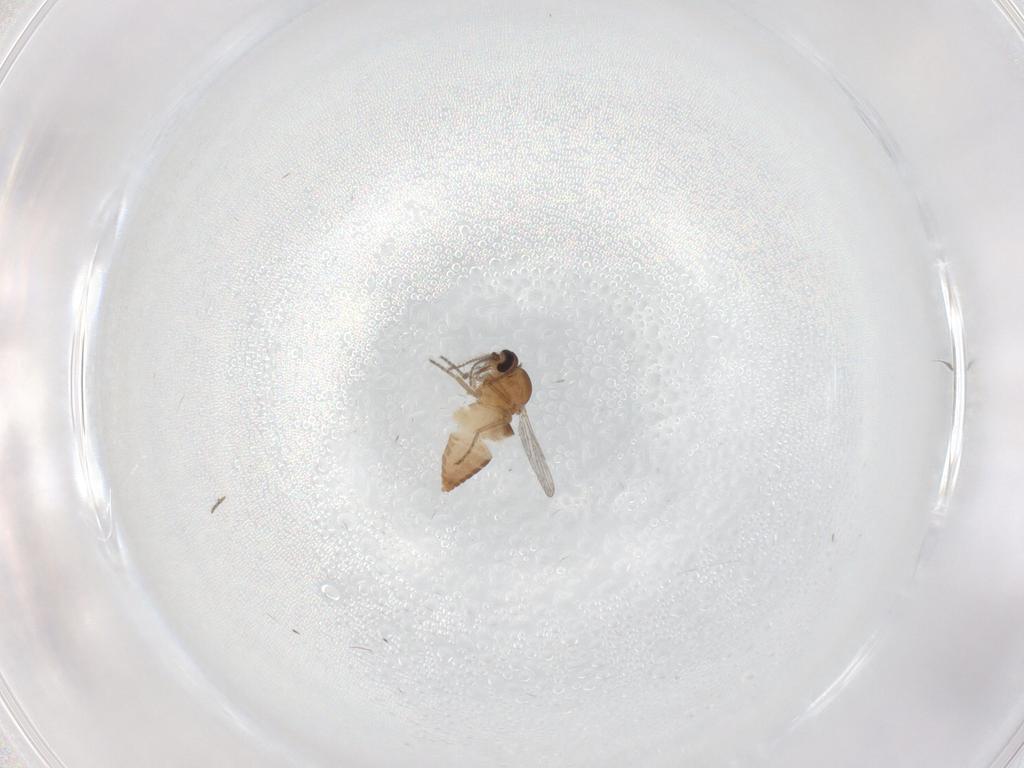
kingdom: Animalia
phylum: Arthropoda
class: Insecta
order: Diptera
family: Ceratopogonidae
